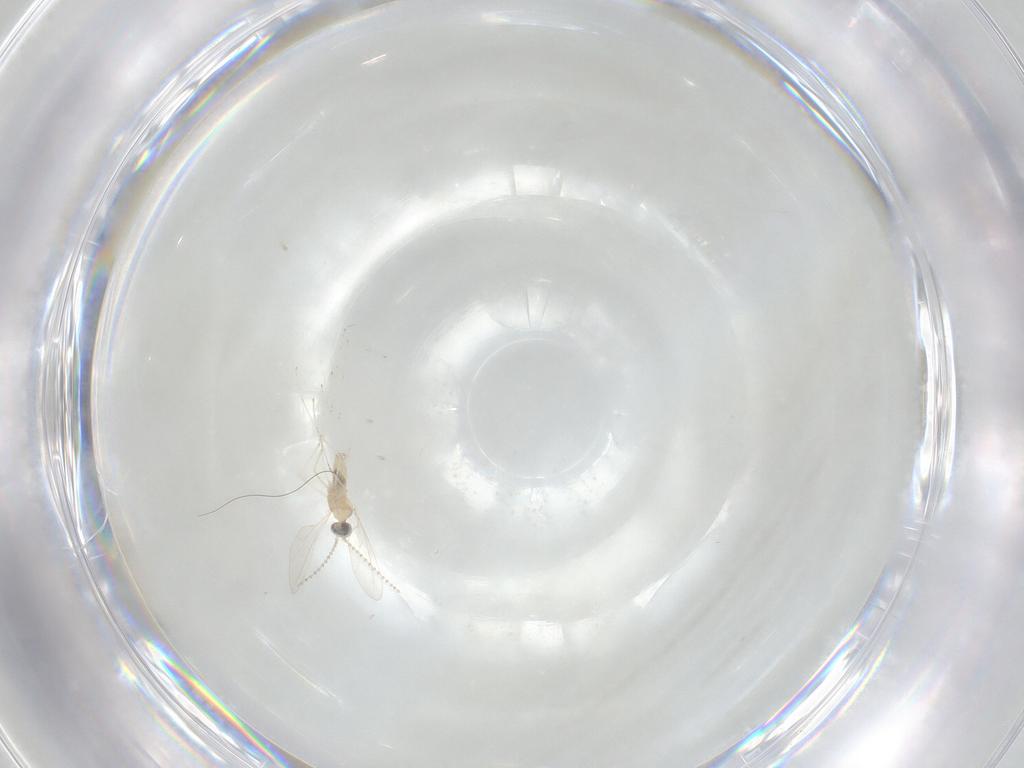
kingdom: Animalia
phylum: Arthropoda
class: Insecta
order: Diptera
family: Cecidomyiidae
